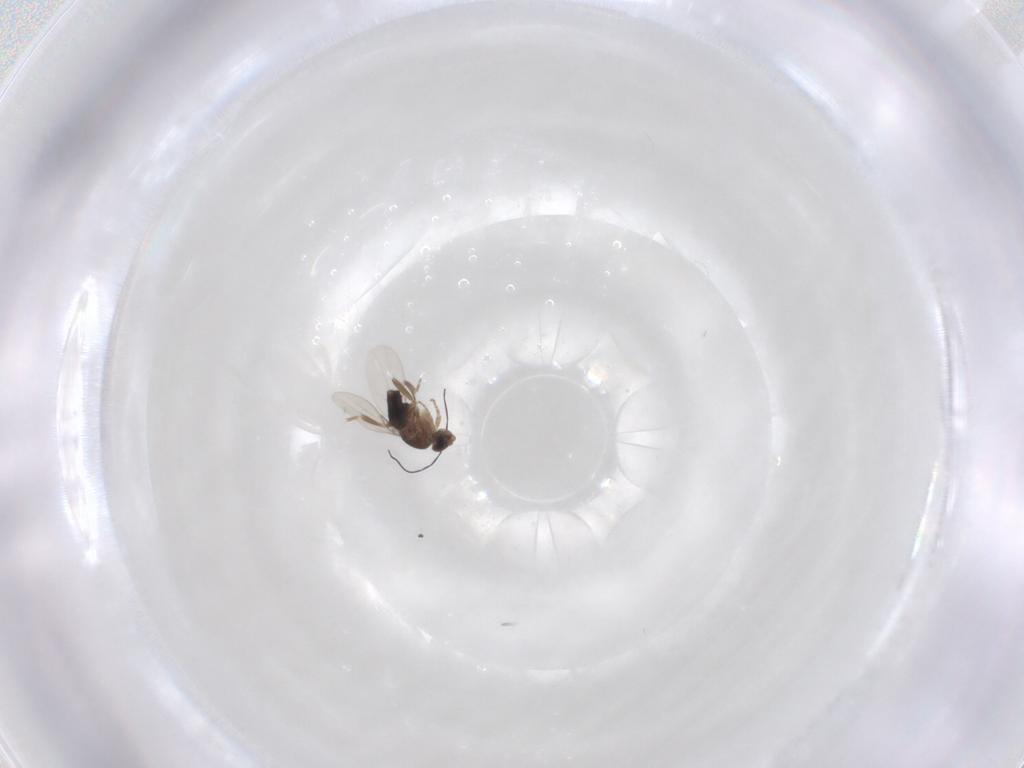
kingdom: Animalia
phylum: Arthropoda
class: Insecta
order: Diptera
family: Phoridae
